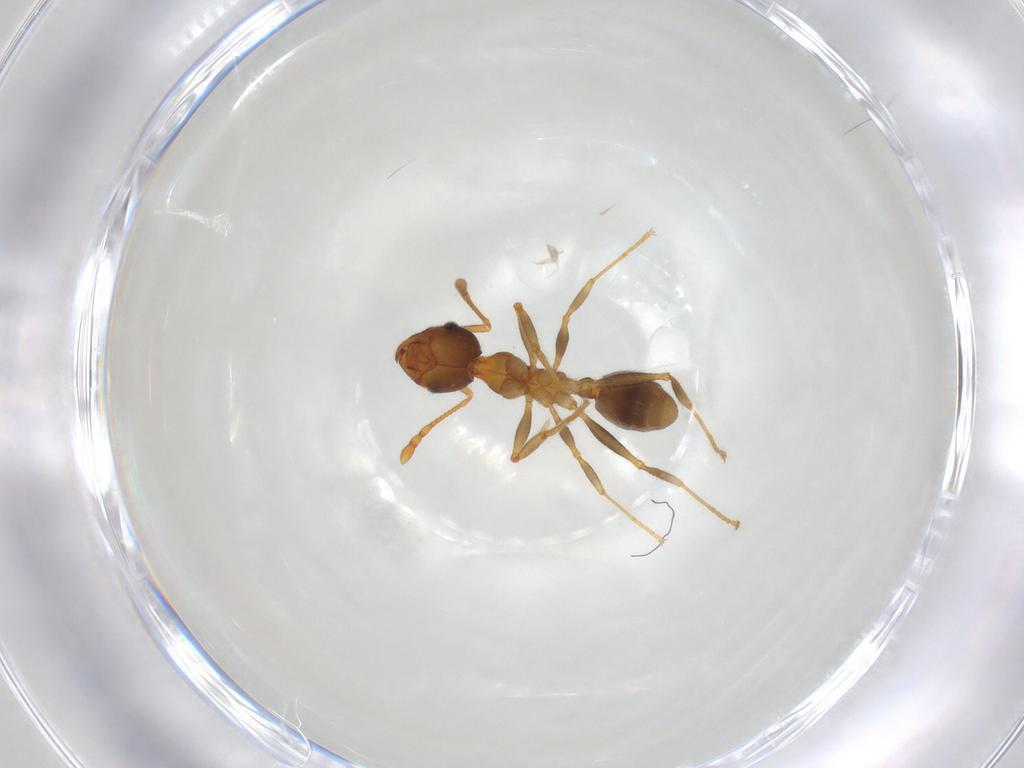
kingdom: Animalia
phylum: Arthropoda
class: Insecta
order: Hymenoptera
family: Formicidae
